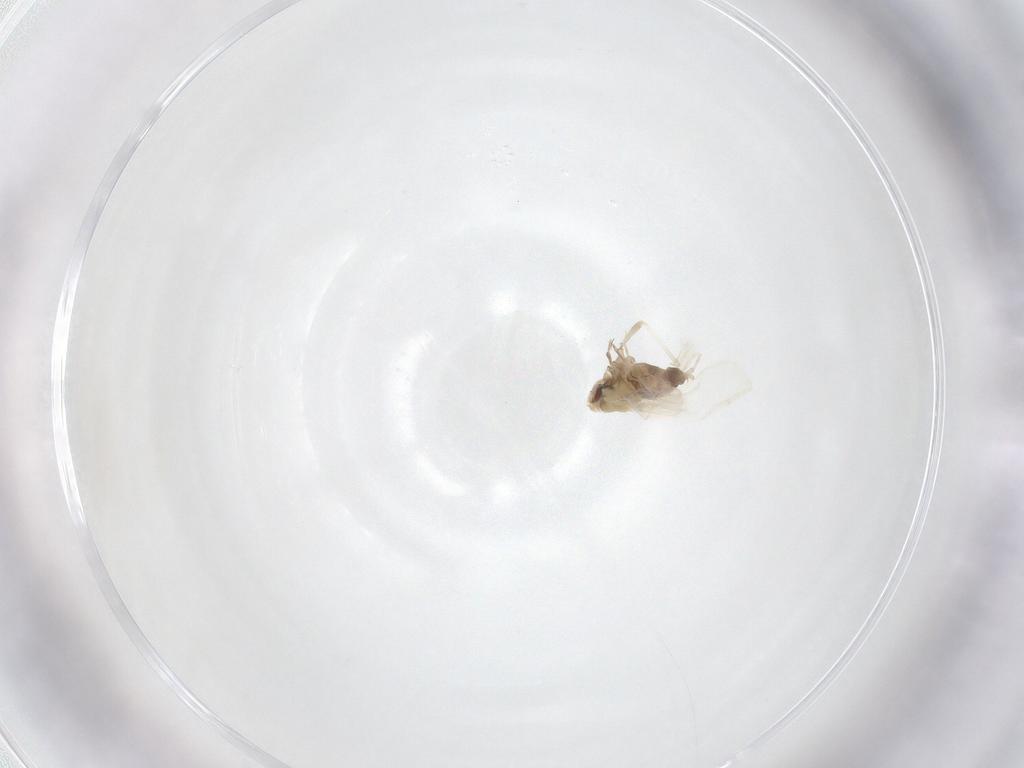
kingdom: Animalia
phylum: Arthropoda
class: Insecta
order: Hemiptera
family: Aleyrodidae
